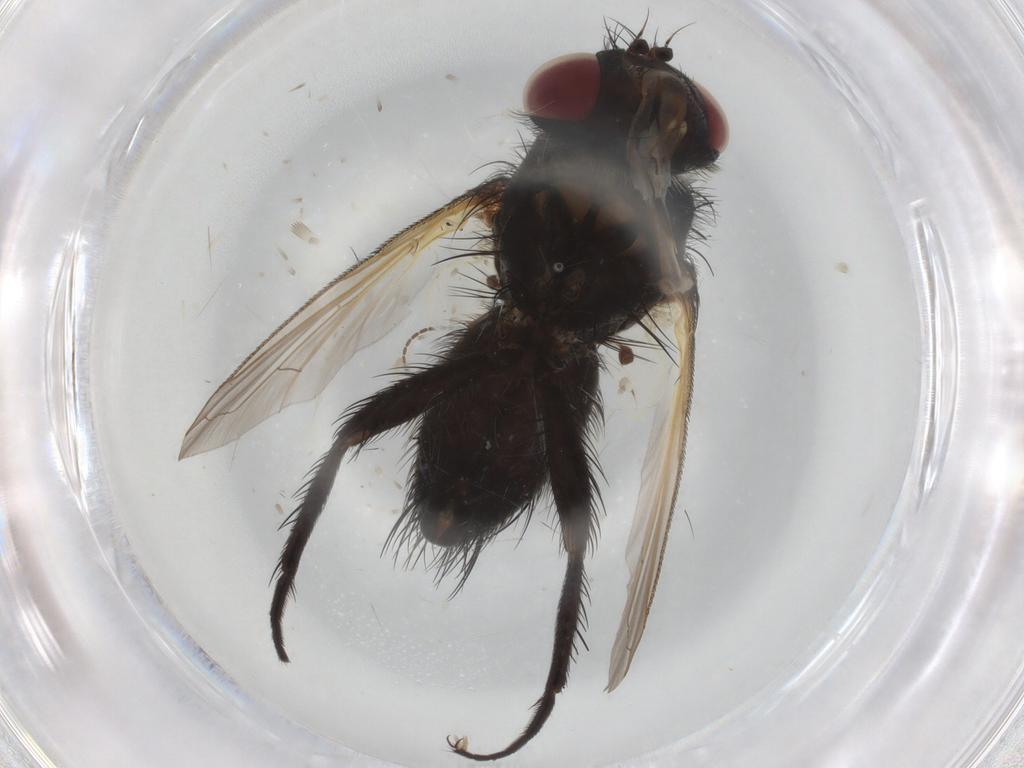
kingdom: Animalia
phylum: Arthropoda
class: Insecta
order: Diptera
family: Tachinidae
